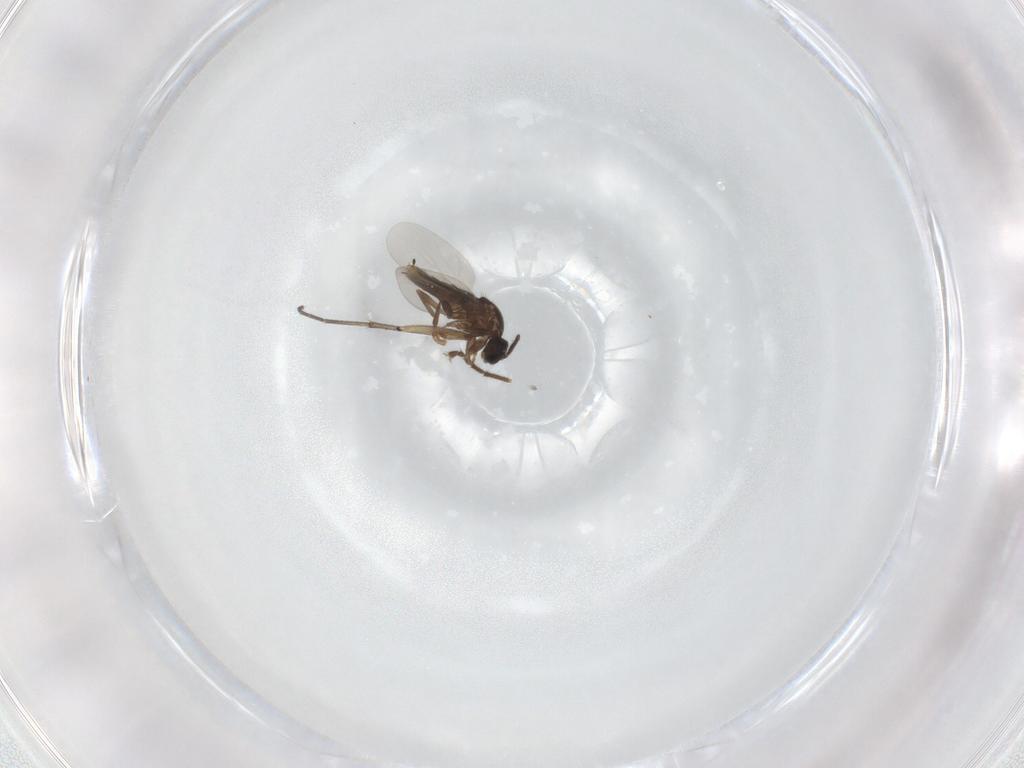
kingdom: Animalia
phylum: Arthropoda
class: Insecta
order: Diptera
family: Scatopsidae
